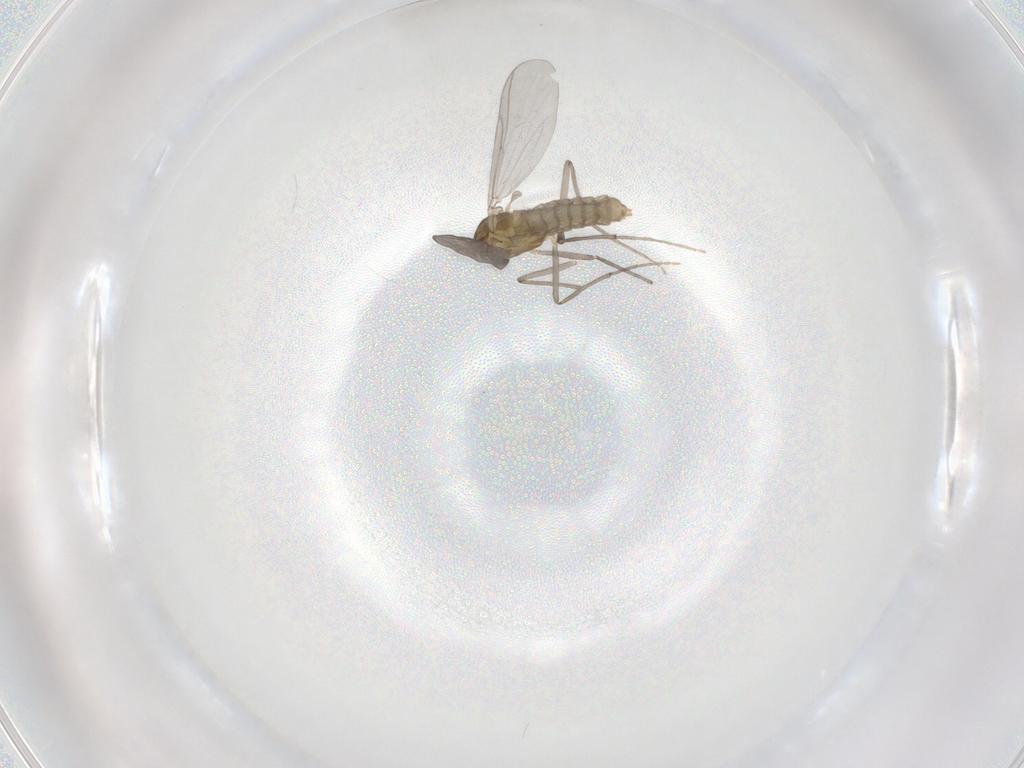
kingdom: Animalia
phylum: Arthropoda
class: Insecta
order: Diptera
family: Chironomidae
